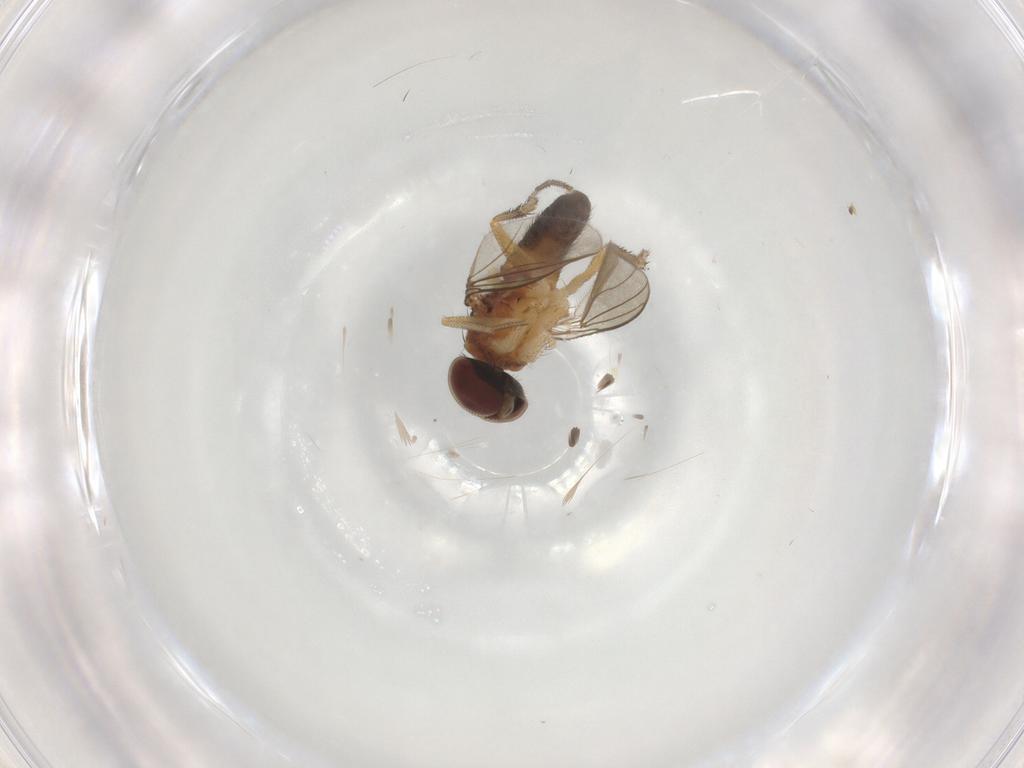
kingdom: Animalia
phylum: Arthropoda
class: Insecta
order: Diptera
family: Dolichopodidae
